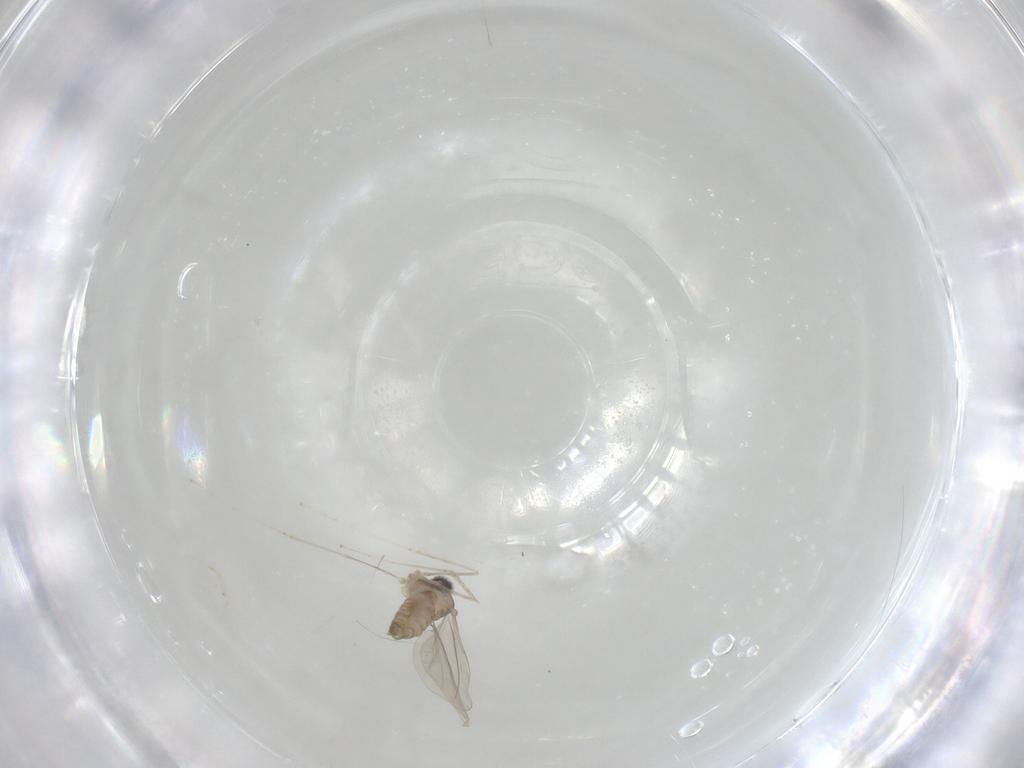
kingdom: Animalia
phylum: Arthropoda
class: Insecta
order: Diptera
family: Cecidomyiidae
